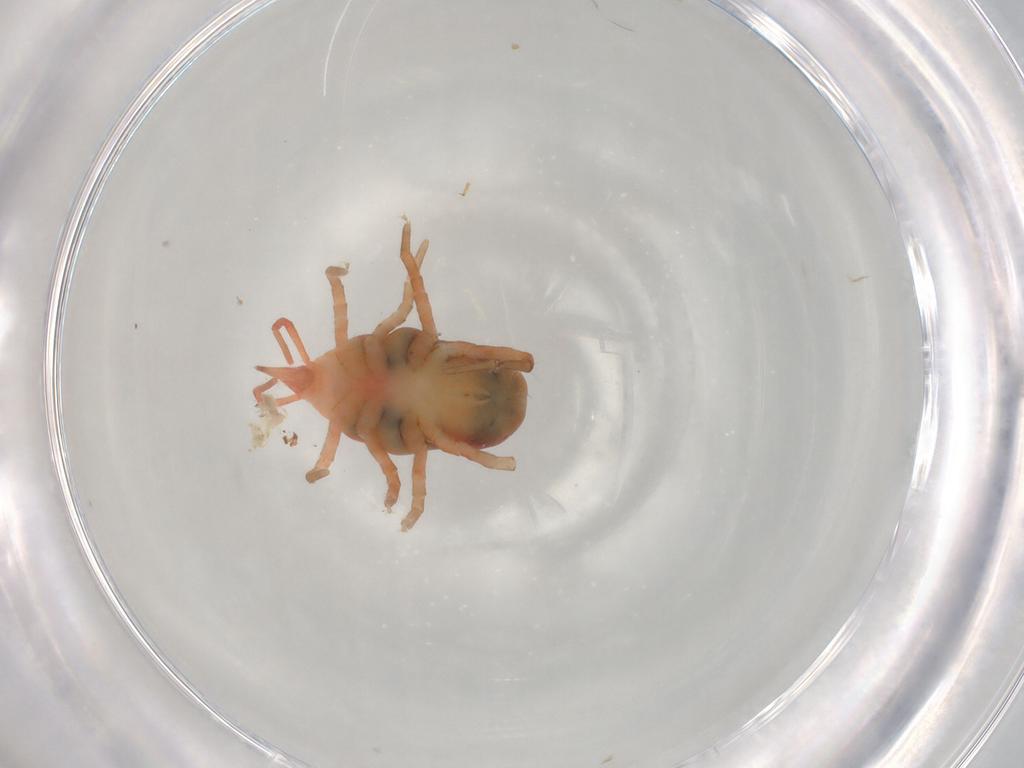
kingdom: Animalia
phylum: Arthropoda
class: Arachnida
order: Trombidiformes
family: Bdellidae
